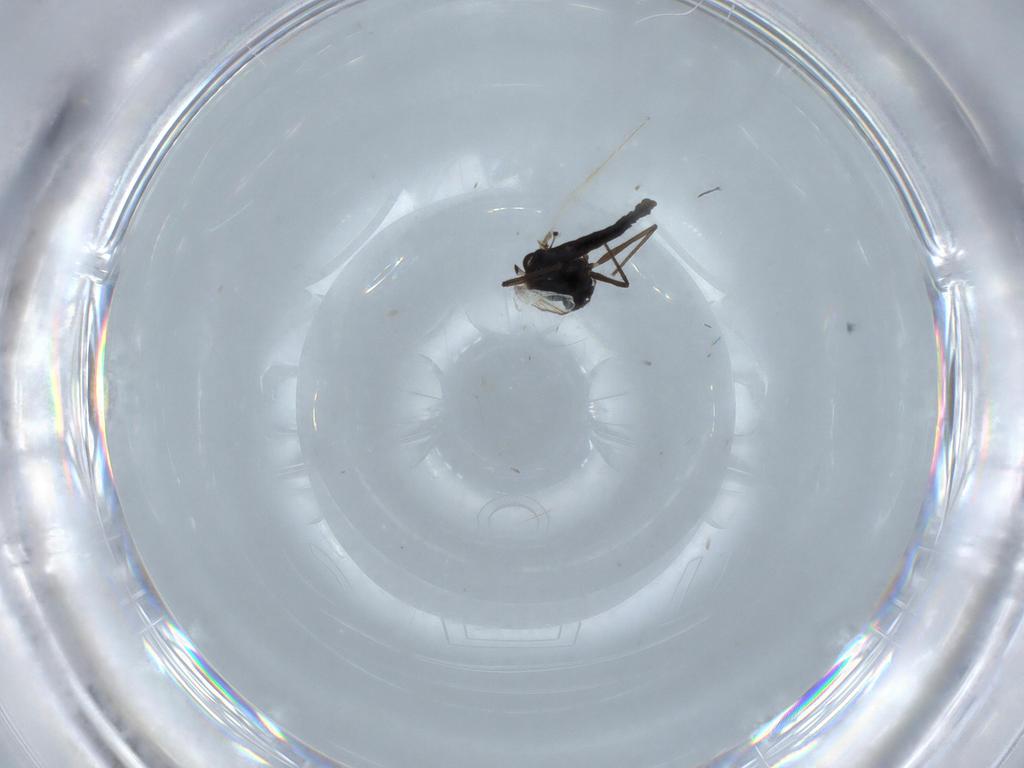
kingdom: Animalia
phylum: Arthropoda
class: Insecta
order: Diptera
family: Chironomidae
